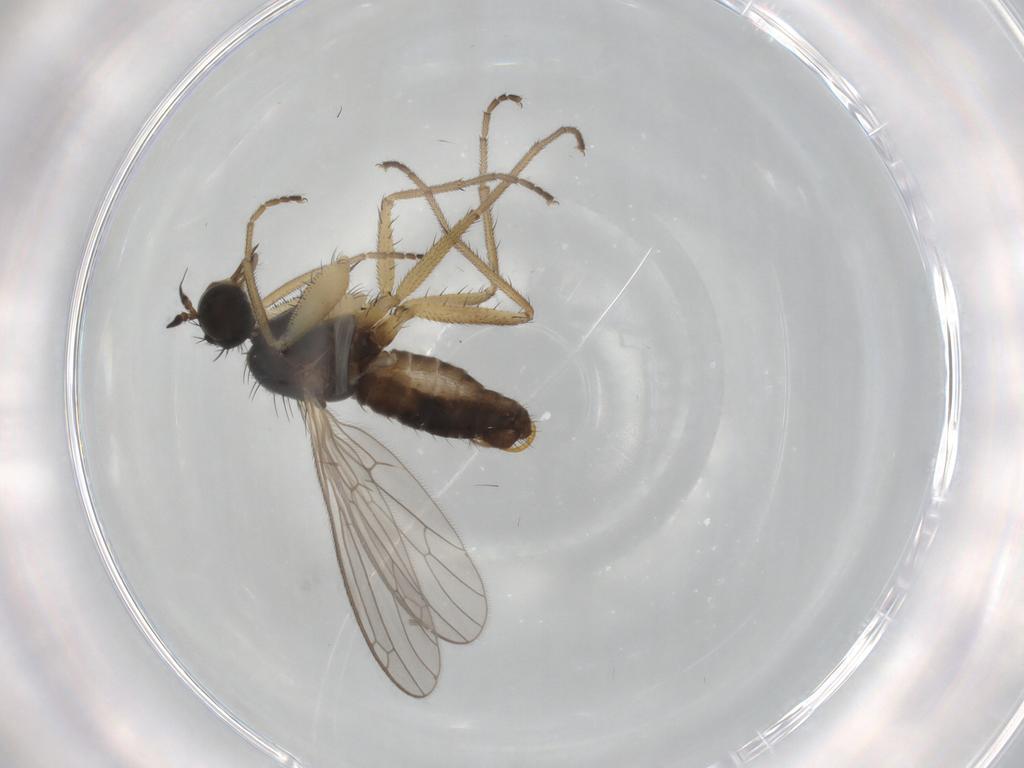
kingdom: Animalia
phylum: Arthropoda
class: Insecta
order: Diptera
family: Empididae
